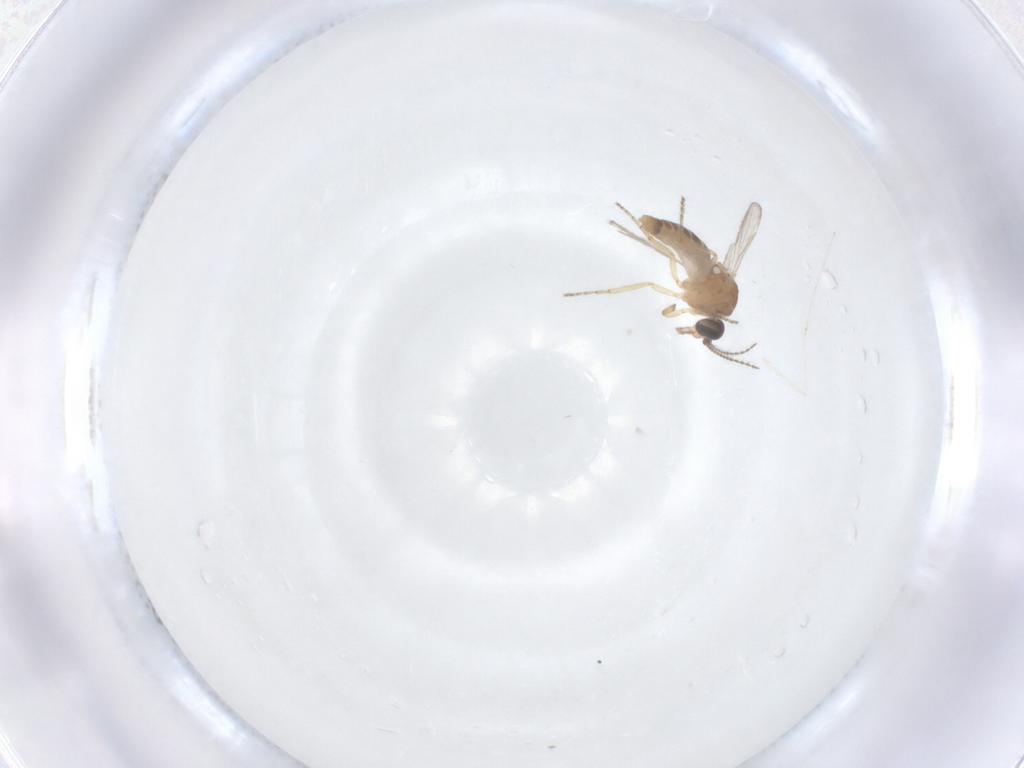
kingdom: Animalia
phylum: Arthropoda
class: Insecta
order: Diptera
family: Ceratopogonidae
